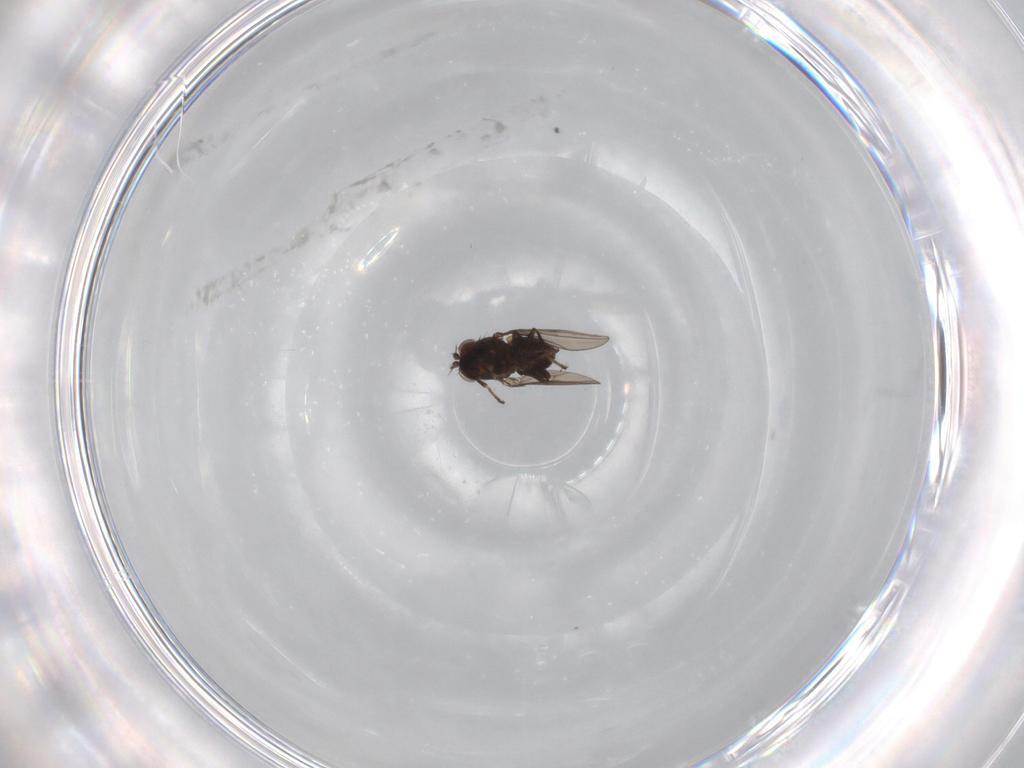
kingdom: Animalia
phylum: Arthropoda
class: Insecta
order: Diptera
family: Ephydridae
